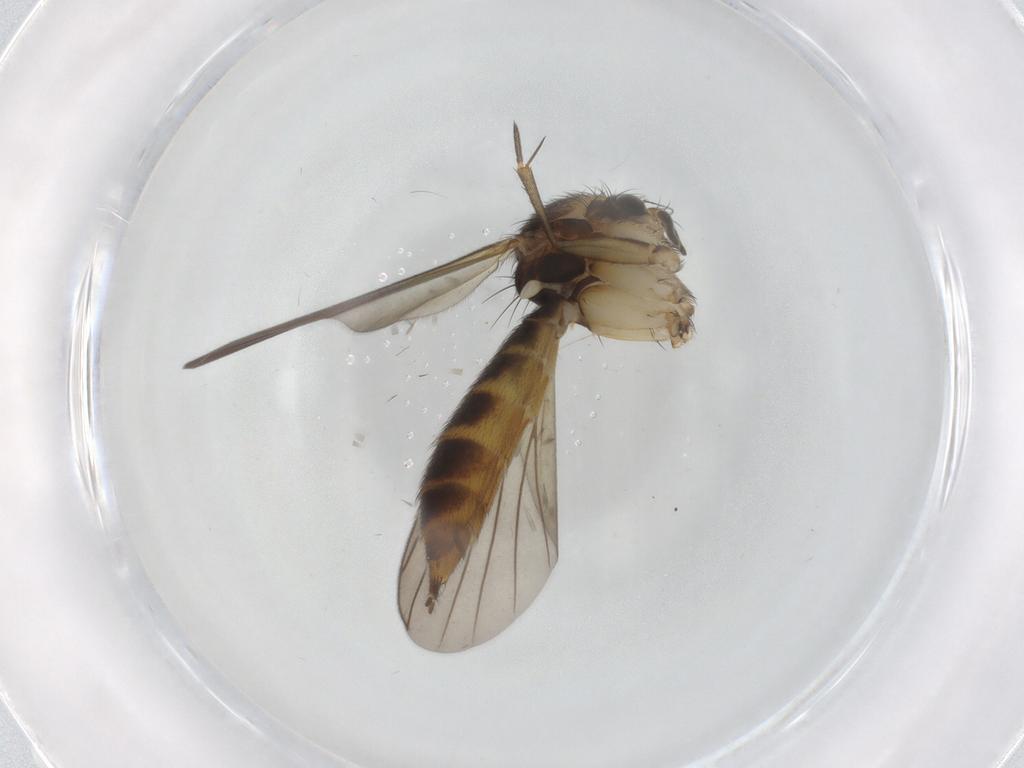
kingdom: Animalia
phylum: Arthropoda
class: Insecta
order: Diptera
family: Mycetophilidae
